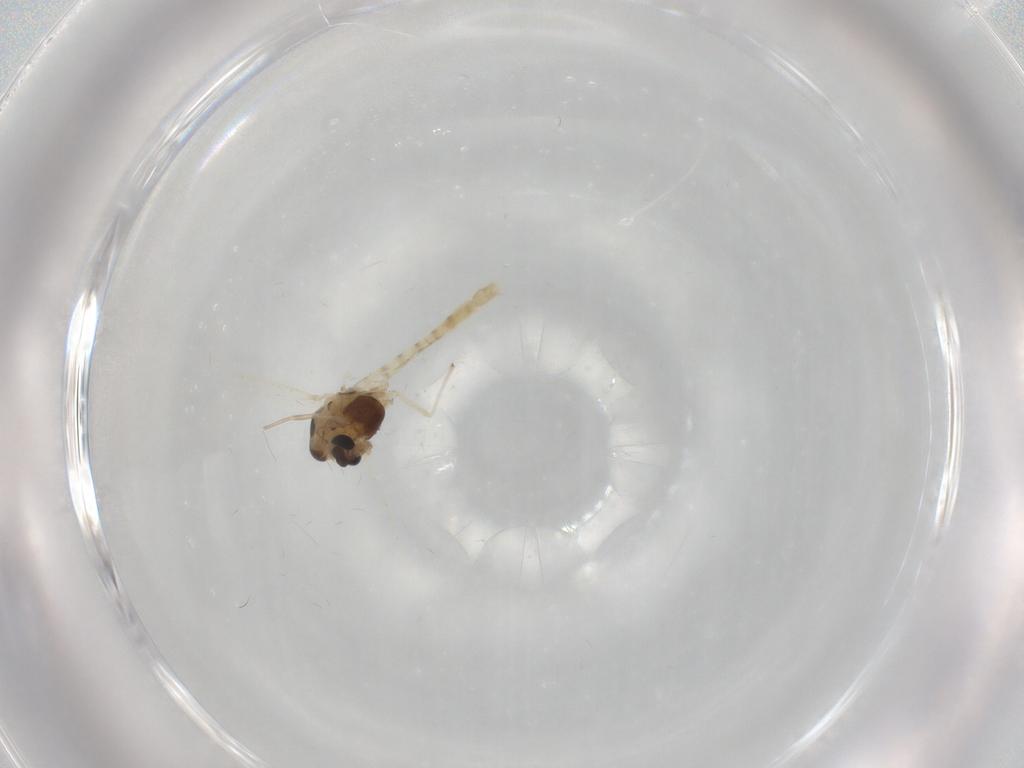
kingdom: Animalia
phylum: Arthropoda
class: Insecta
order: Diptera
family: Chironomidae
